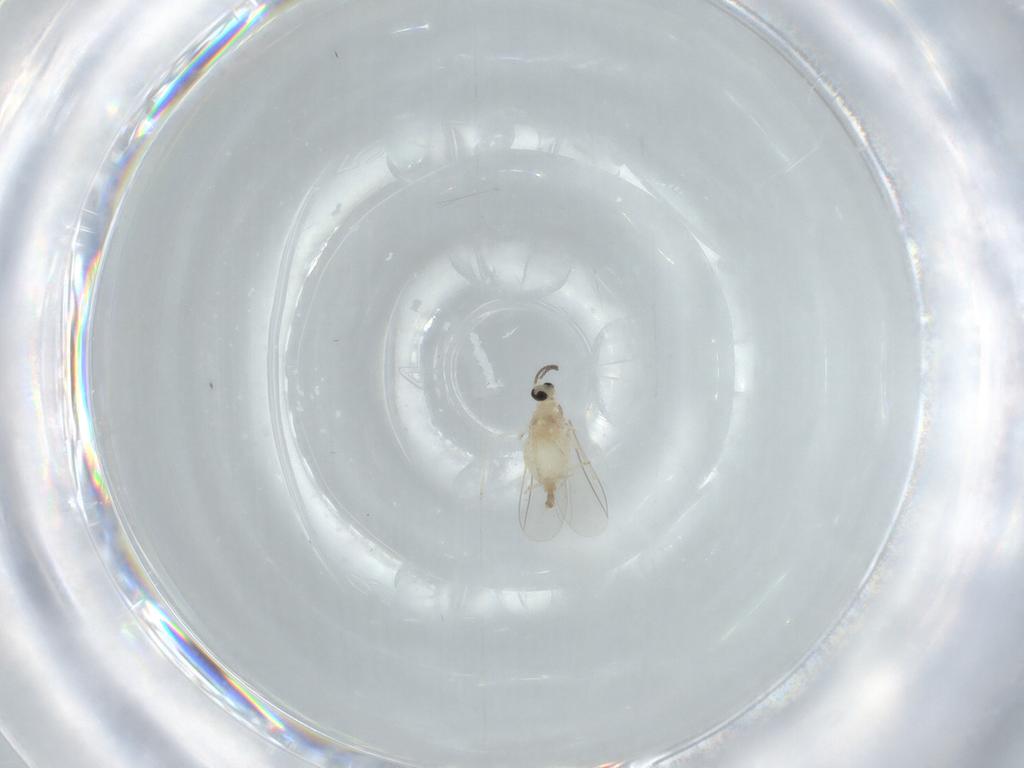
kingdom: Animalia
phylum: Arthropoda
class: Insecta
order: Diptera
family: Cecidomyiidae
